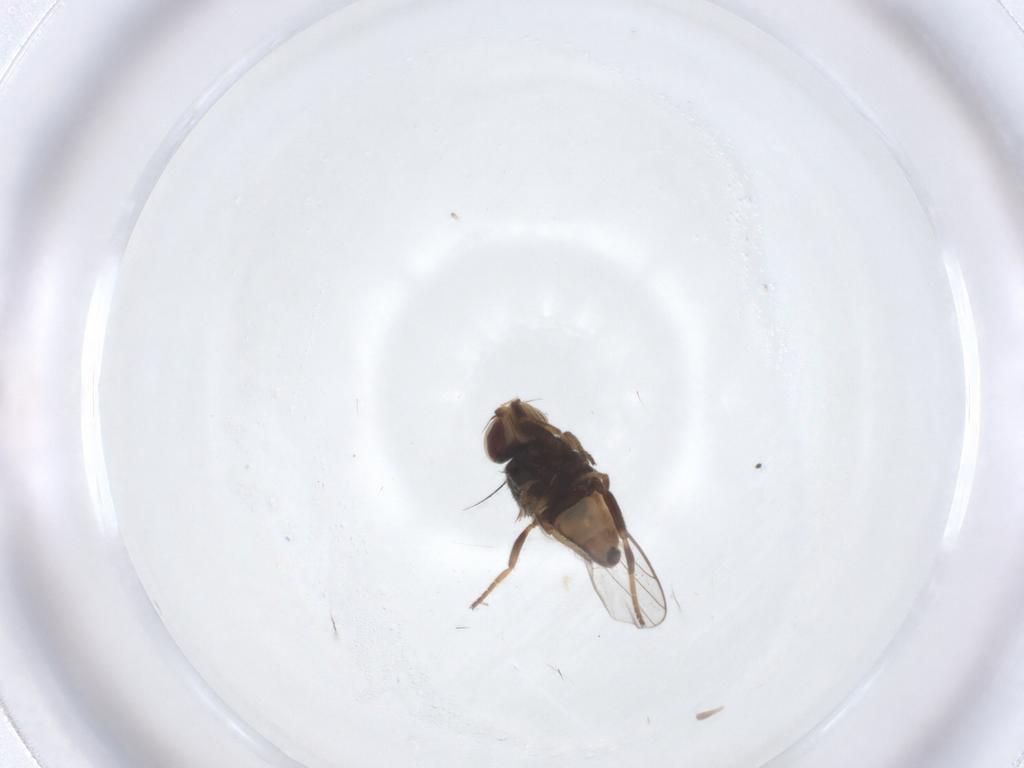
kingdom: Animalia
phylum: Arthropoda
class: Insecta
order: Diptera
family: Chloropidae
